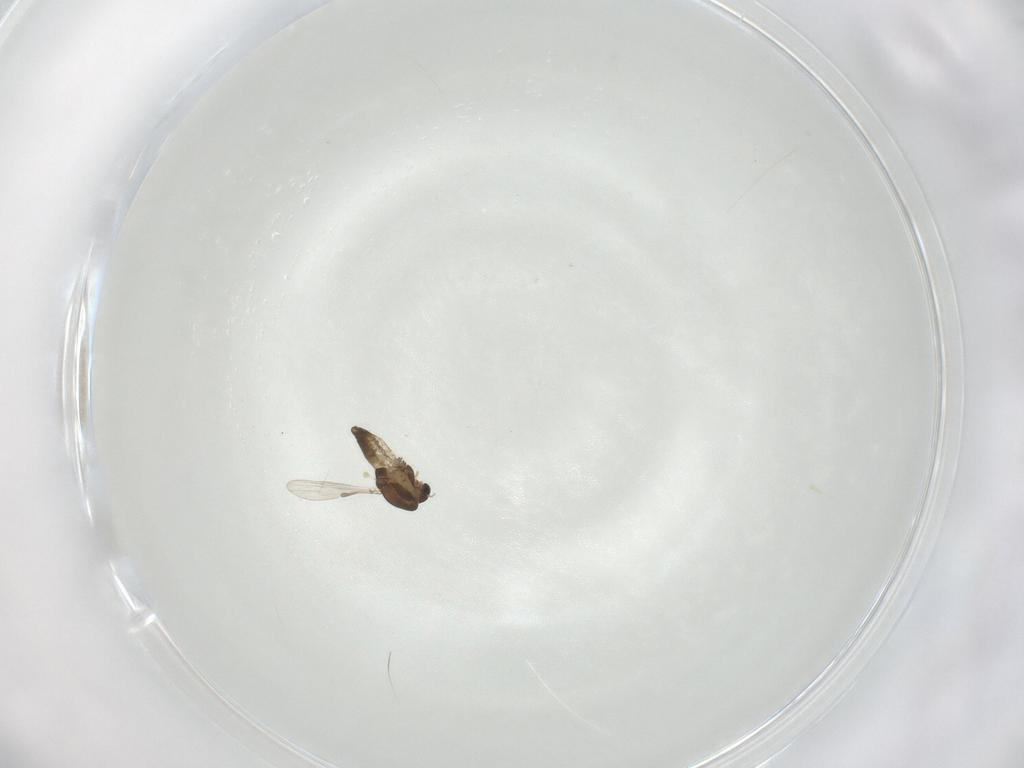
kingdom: Animalia
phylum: Arthropoda
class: Insecta
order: Diptera
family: Chironomidae
